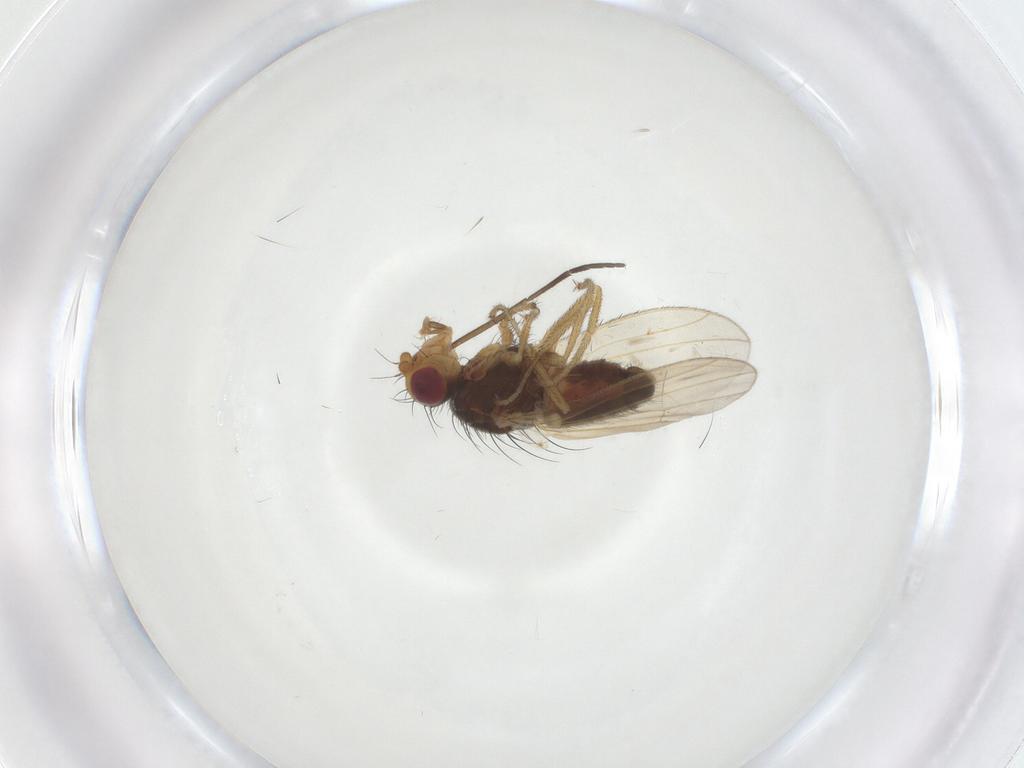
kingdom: Animalia
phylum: Arthropoda
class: Insecta
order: Diptera
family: Heleomyzidae
